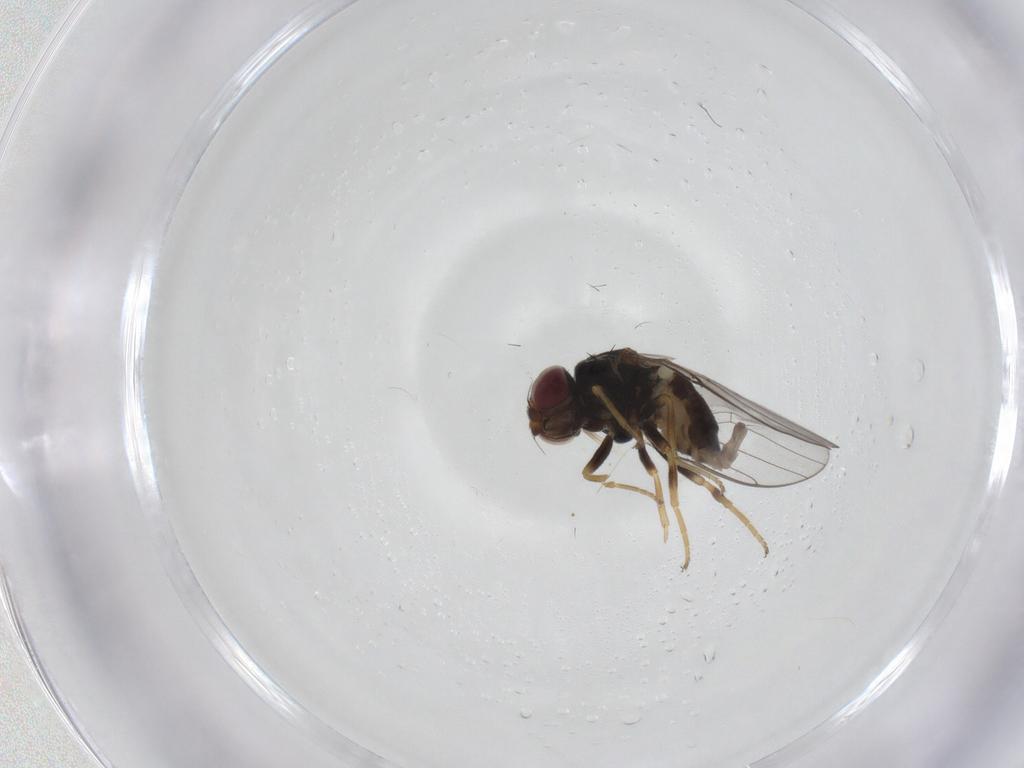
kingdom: Animalia
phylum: Arthropoda
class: Insecta
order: Diptera
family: Chloropidae
